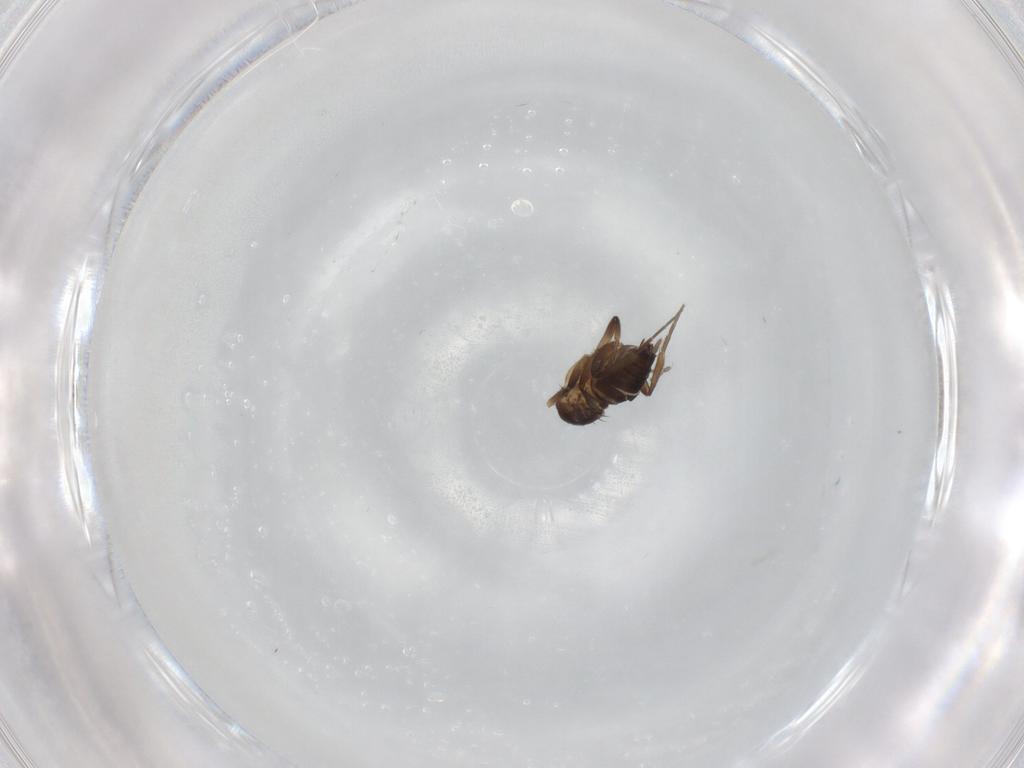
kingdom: Animalia
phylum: Arthropoda
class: Insecta
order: Diptera
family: Phoridae
